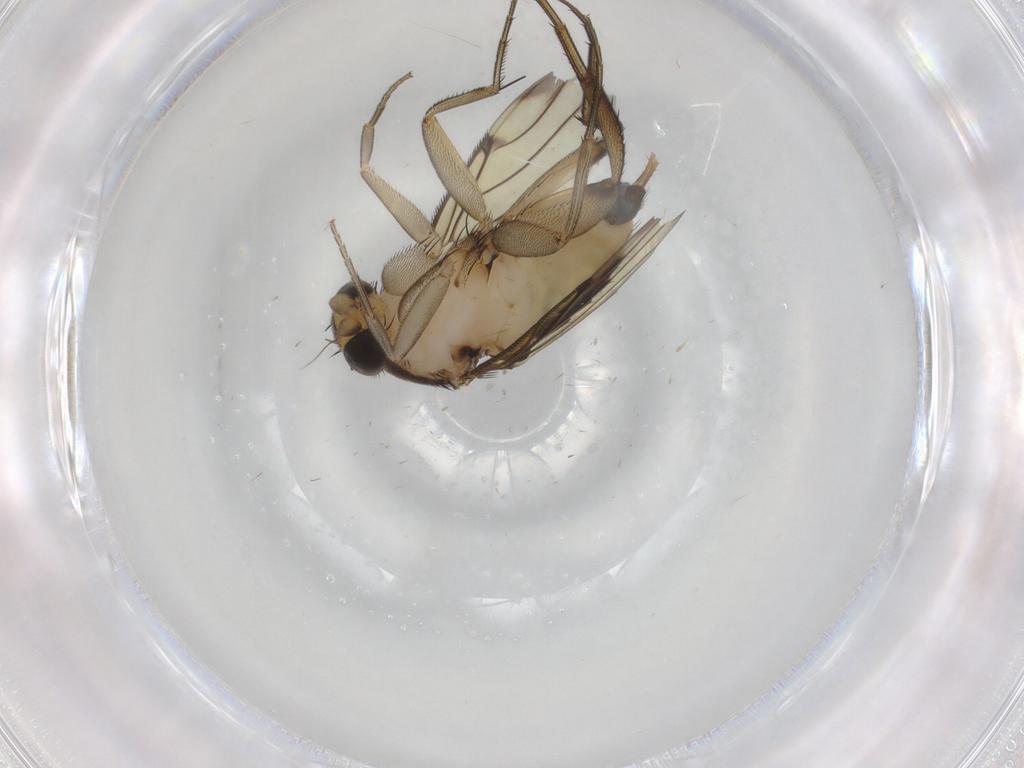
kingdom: Animalia
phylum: Arthropoda
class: Insecta
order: Diptera
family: Phoridae
